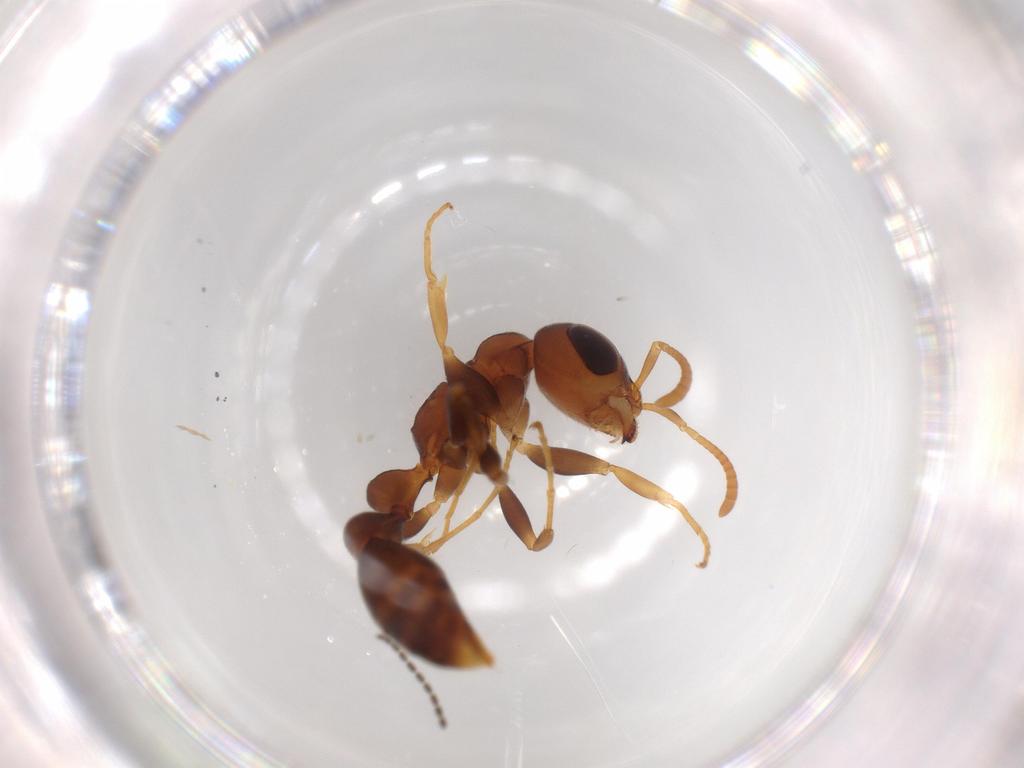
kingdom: Animalia
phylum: Arthropoda
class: Insecta
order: Hymenoptera
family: Formicidae
